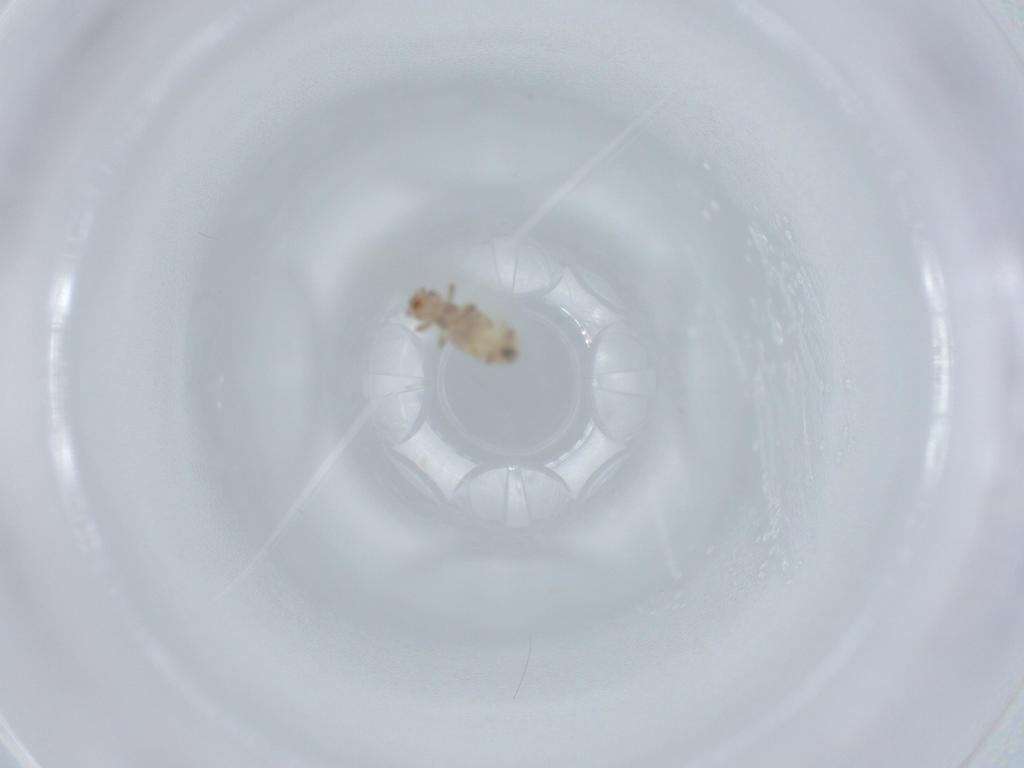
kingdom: Animalia
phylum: Arthropoda
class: Insecta
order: Psocodea
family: Liposcelididae
